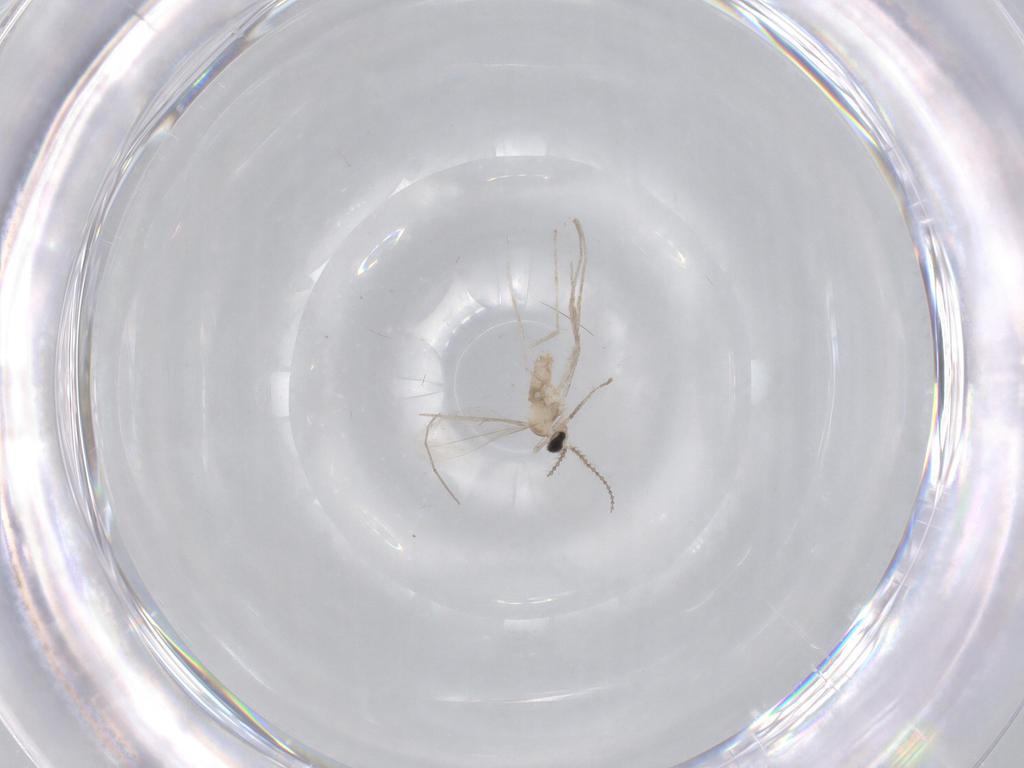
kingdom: Animalia
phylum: Arthropoda
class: Insecta
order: Diptera
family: Chironomidae
